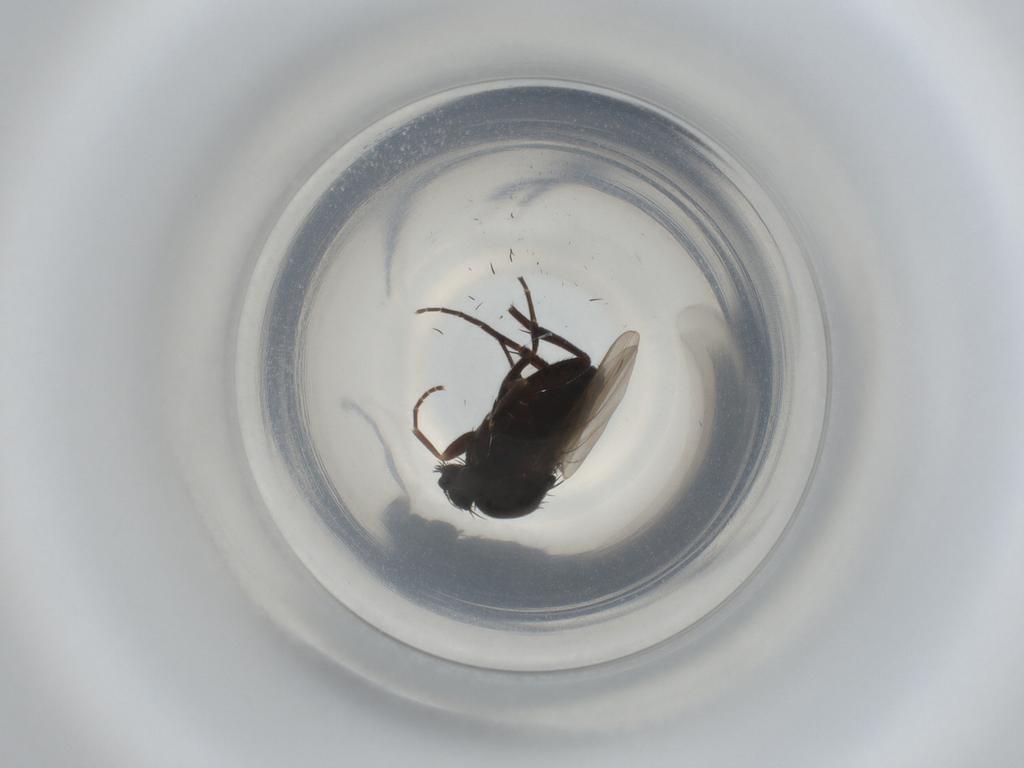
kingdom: Animalia
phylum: Arthropoda
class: Insecta
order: Diptera
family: Phoridae
